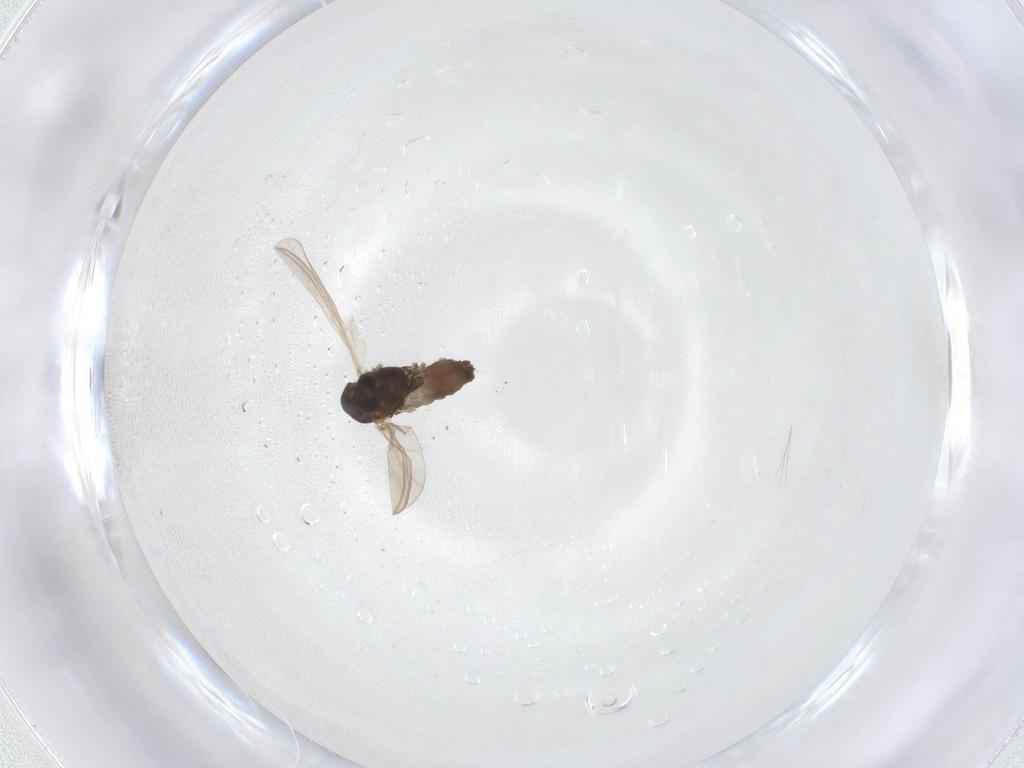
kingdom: Animalia
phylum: Arthropoda
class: Insecta
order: Diptera
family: Chironomidae
